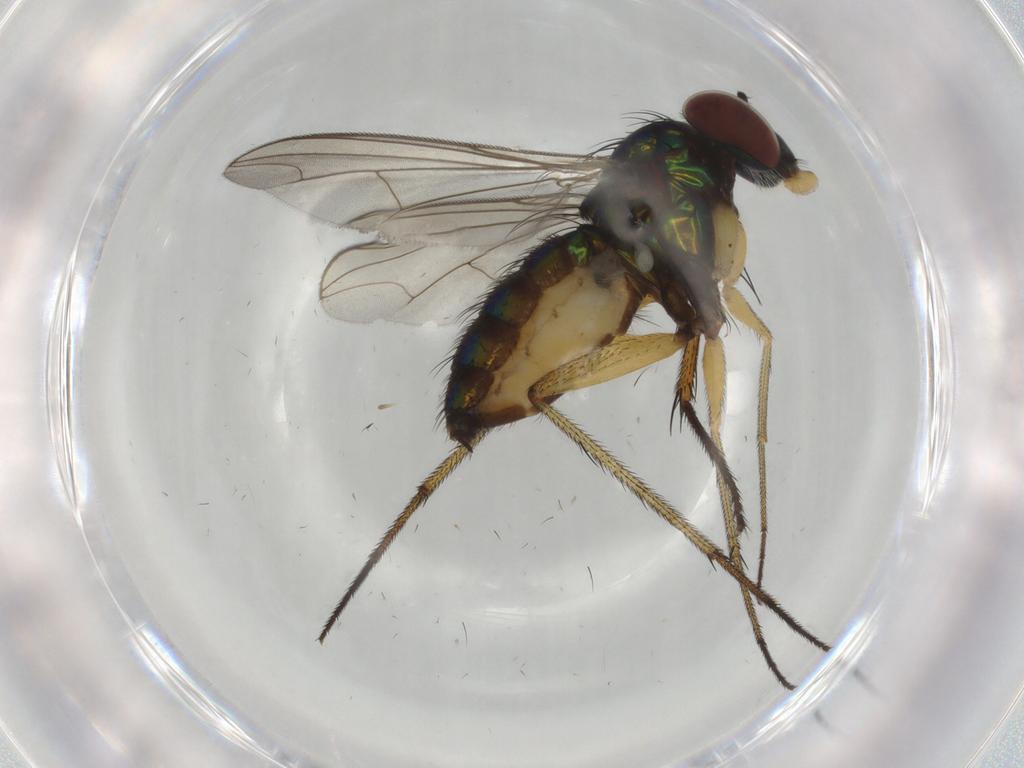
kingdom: Animalia
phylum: Arthropoda
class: Insecta
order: Diptera
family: Dolichopodidae
